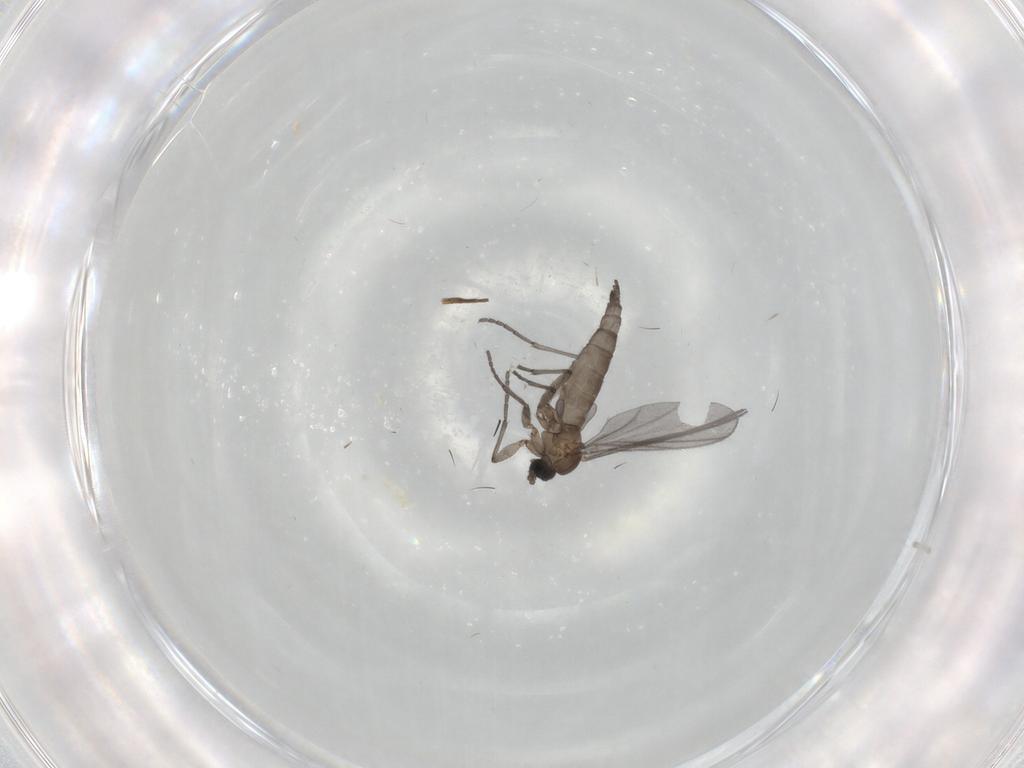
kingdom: Animalia
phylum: Arthropoda
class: Insecta
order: Diptera
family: Sciaridae
